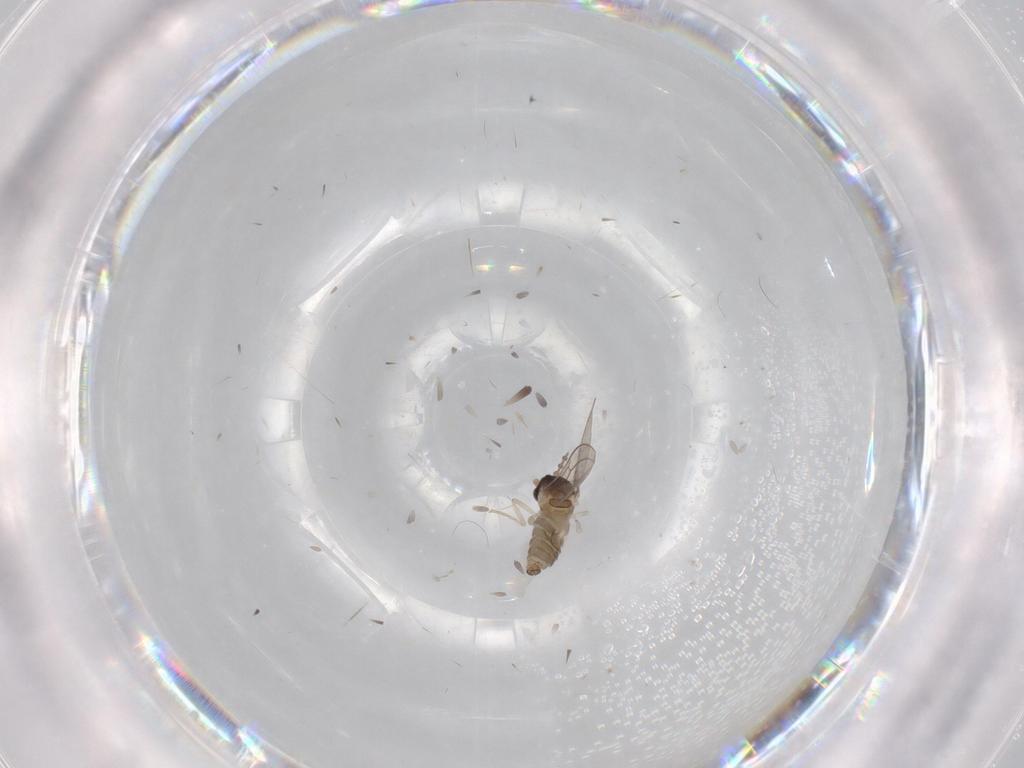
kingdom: Animalia
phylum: Arthropoda
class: Insecta
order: Diptera
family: Cecidomyiidae
